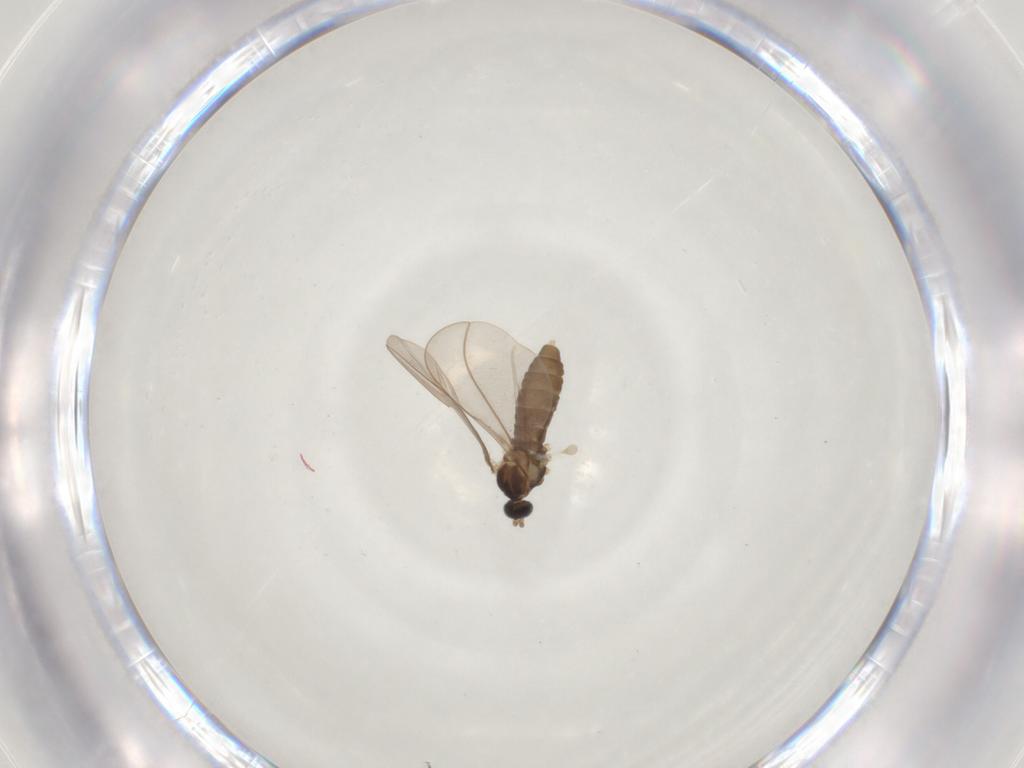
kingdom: Animalia
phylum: Arthropoda
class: Insecta
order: Diptera
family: Cecidomyiidae
